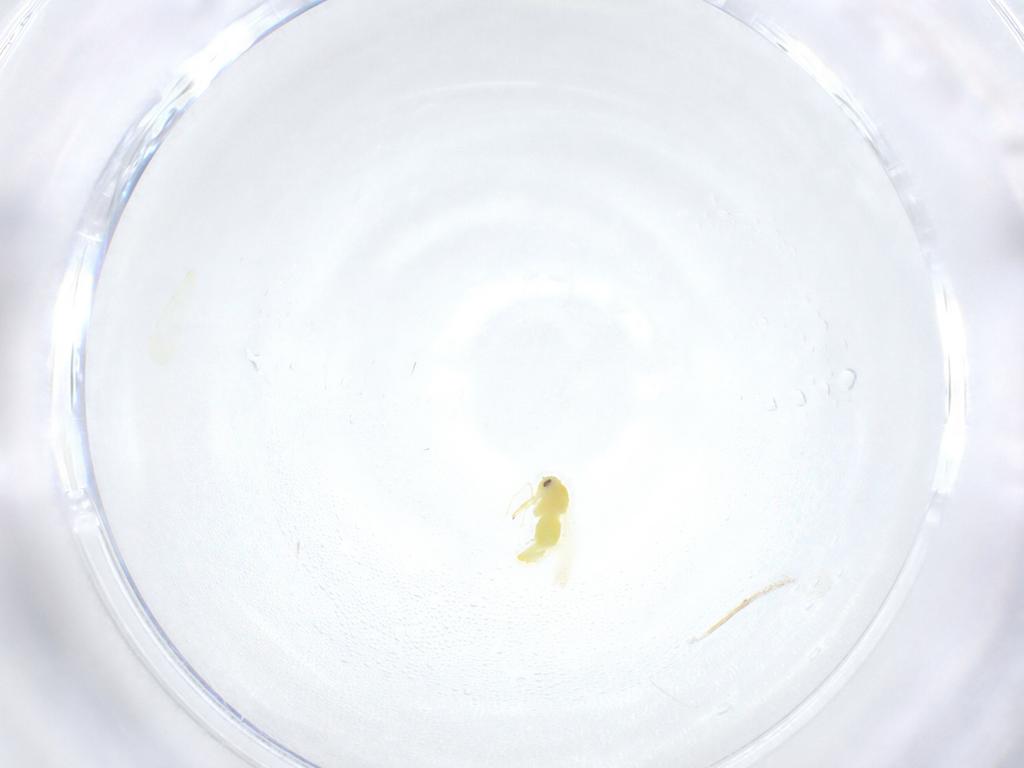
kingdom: Animalia
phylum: Arthropoda
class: Insecta
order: Hemiptera
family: Aleyrodidae
